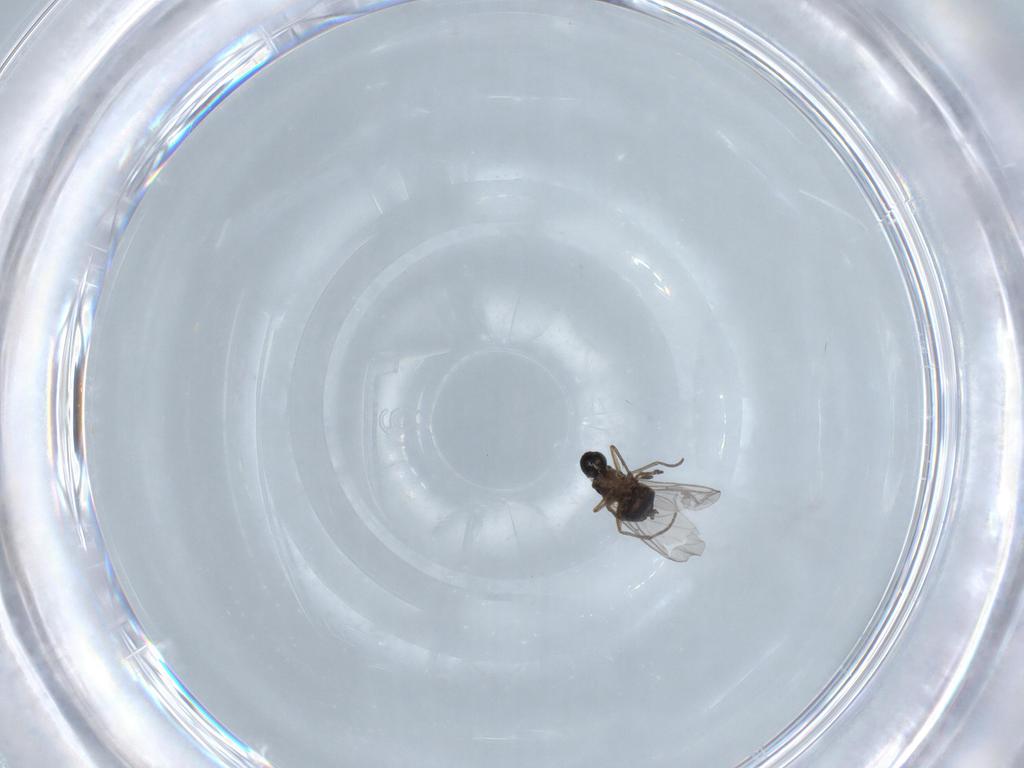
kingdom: Animalia
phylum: Arthropoda
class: Insecta
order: Diptera
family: Sciaridae
